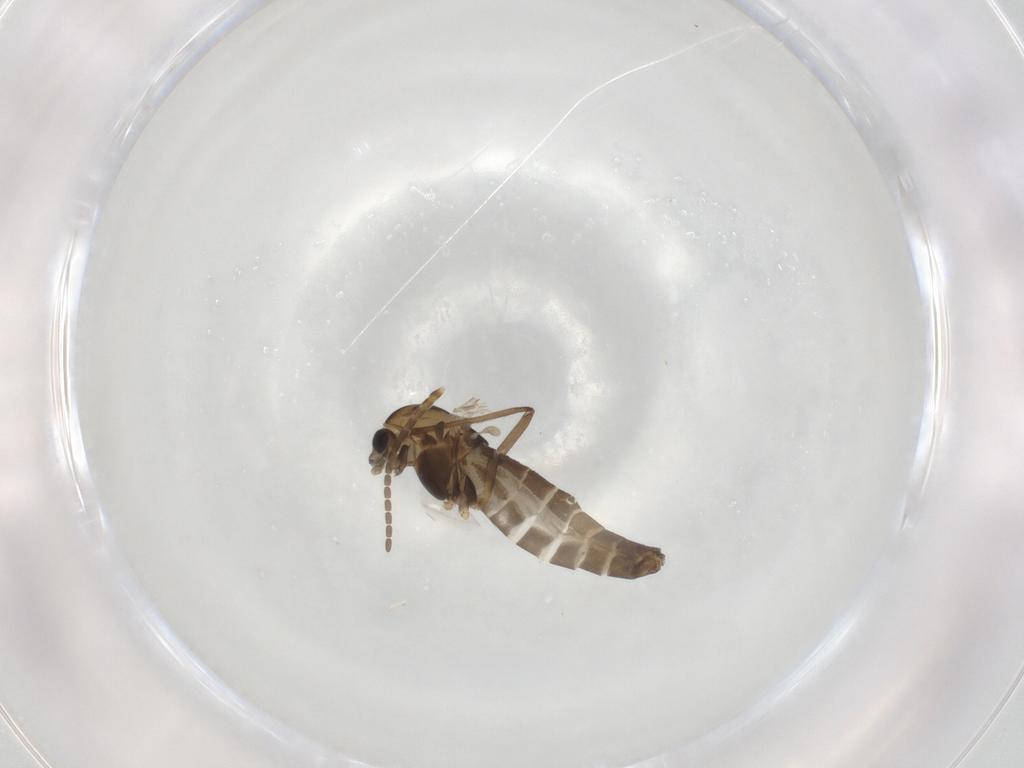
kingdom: Animalia
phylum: Arthropoda
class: Insecta
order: Diptera
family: Chironomidae
